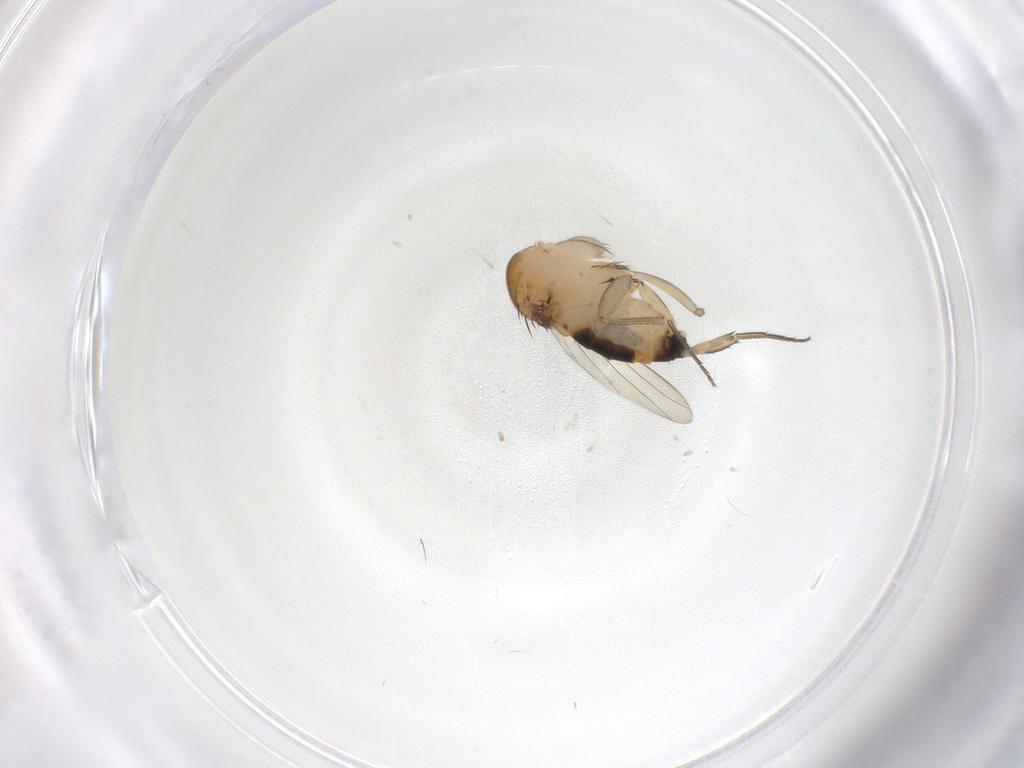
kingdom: Animalia
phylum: Arthropoda
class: Insecta
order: Diptera
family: Phoridae
